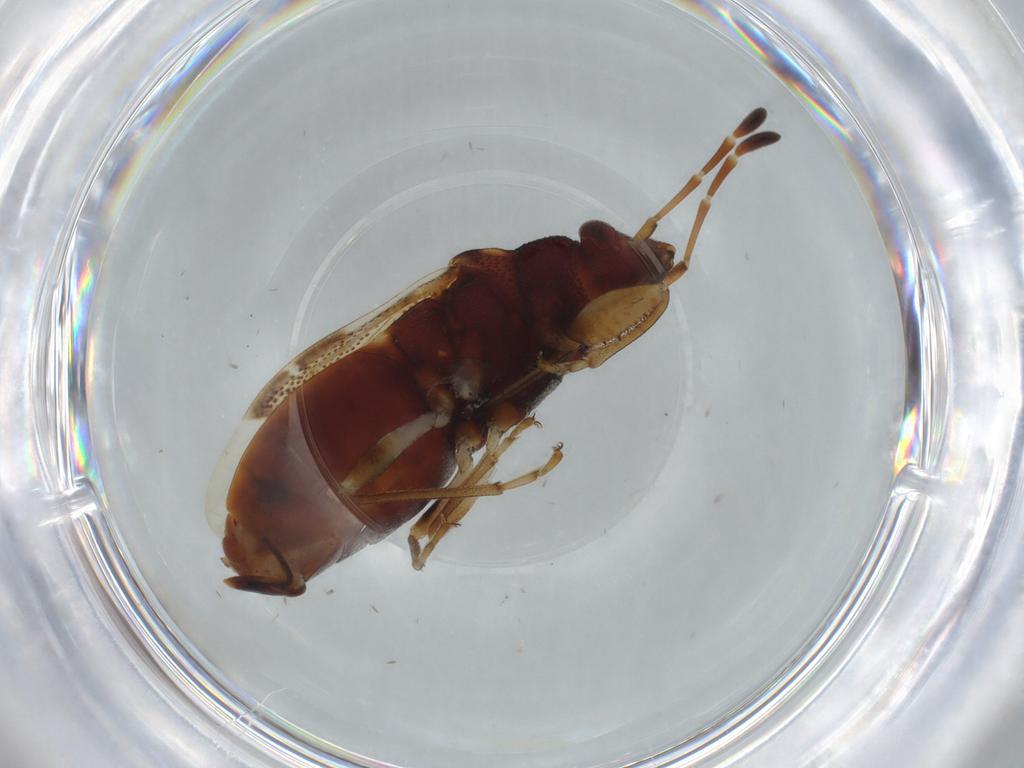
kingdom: Animalia
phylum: Arthropoda
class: Insecta
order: Hemiptera
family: Rhyparochromidae
